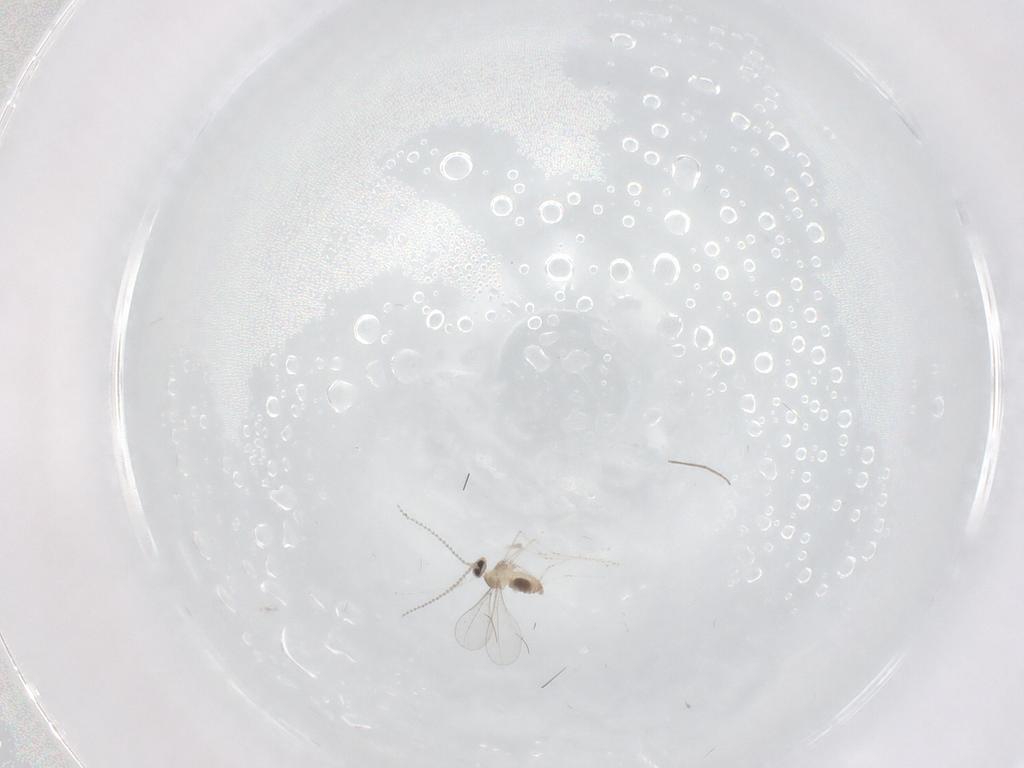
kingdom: Animalia
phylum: Arthropoda
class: Insecta
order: Diptera
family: Cecidomyiidae
